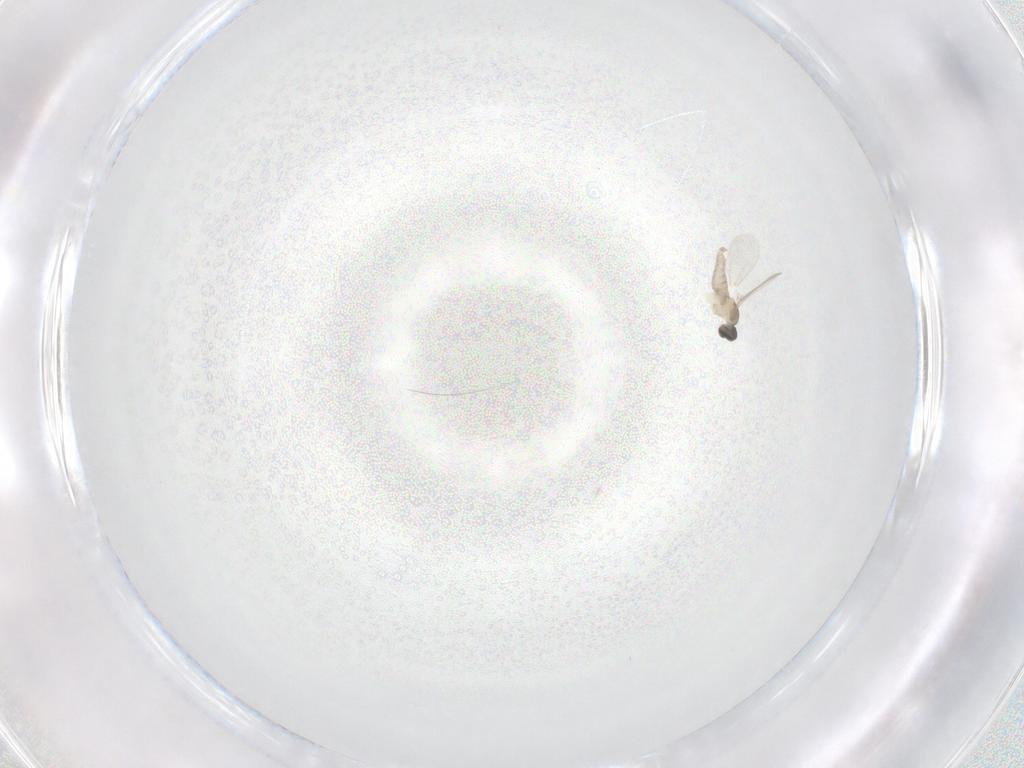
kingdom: Animalia
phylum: Arthropoda
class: Insecta
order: Diptera
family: Cecidomyiidae
